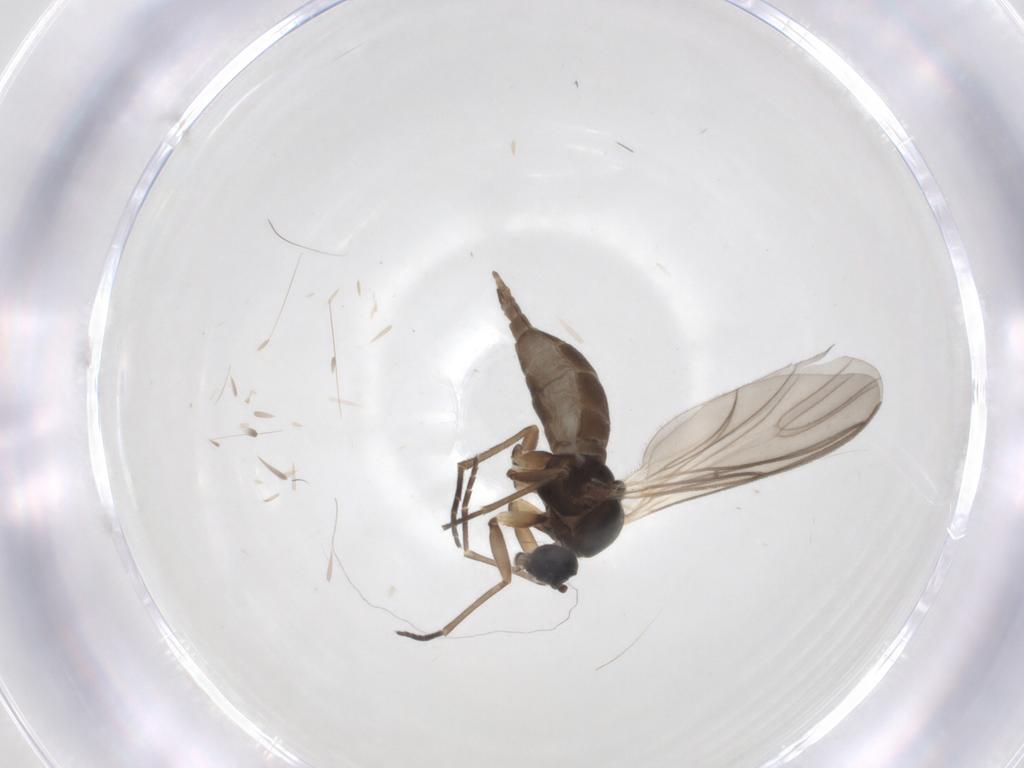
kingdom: Animalia
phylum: Arthropoda
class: Insecta
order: Diptera
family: Sciaridae
